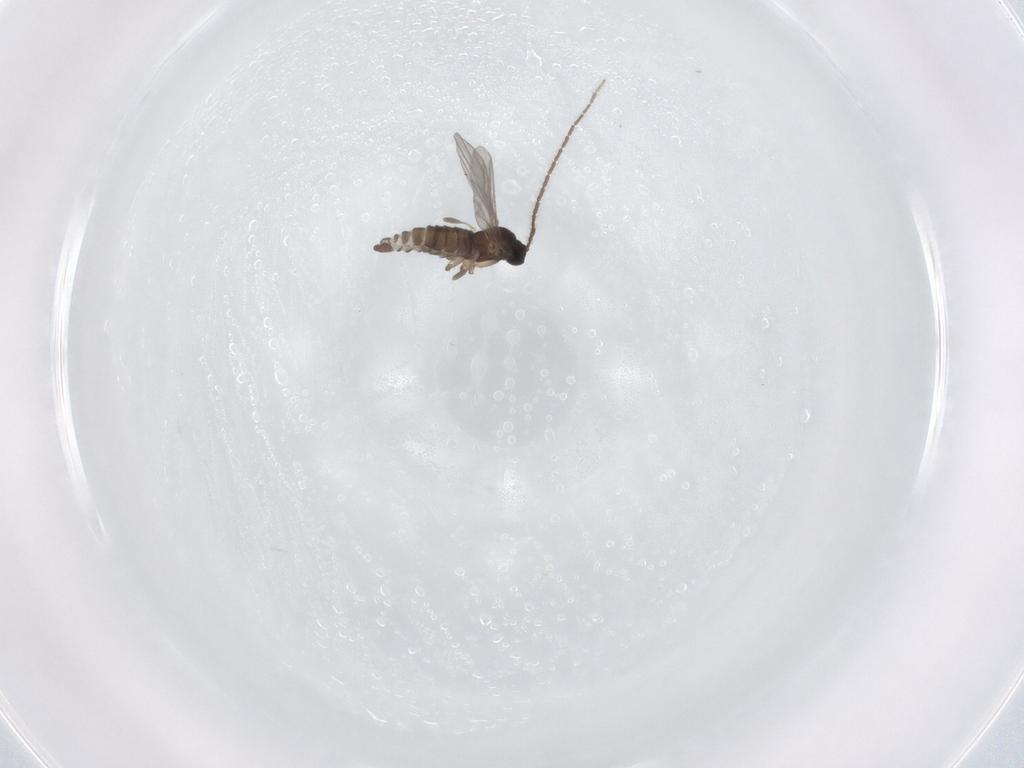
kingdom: Animalia
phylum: Arthropoda
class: Insecta
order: Diptera
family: Sciaridae
